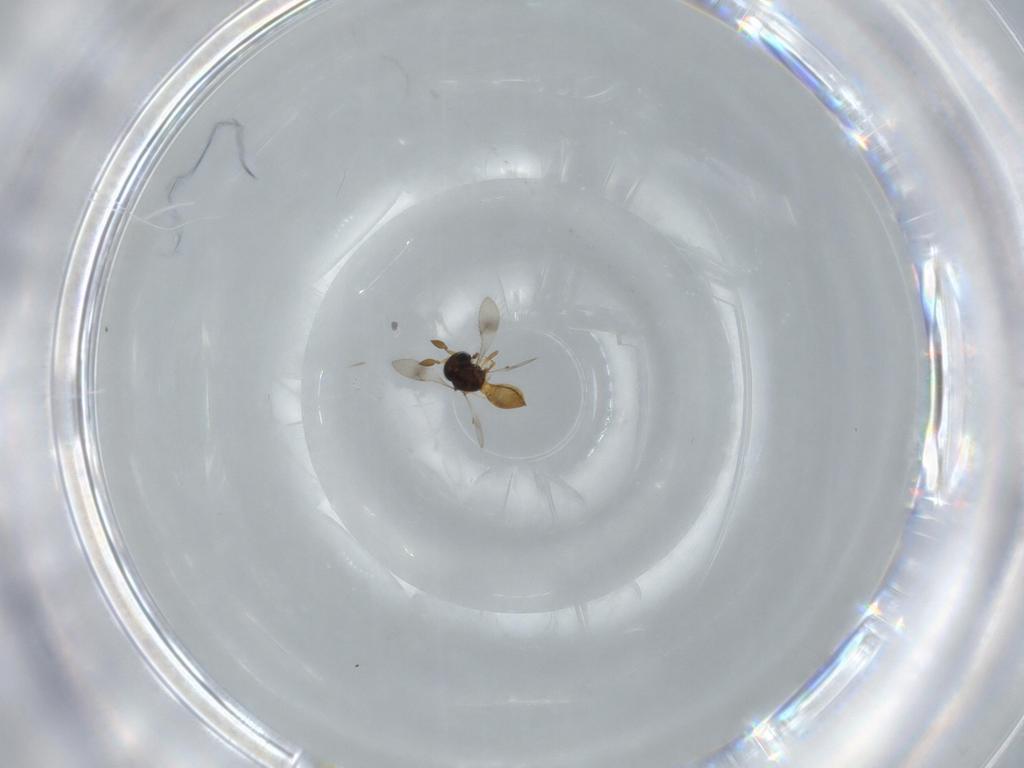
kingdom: Animalia
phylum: Arthropoda
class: Insecta
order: Hymenoptera
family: Scelionidae
